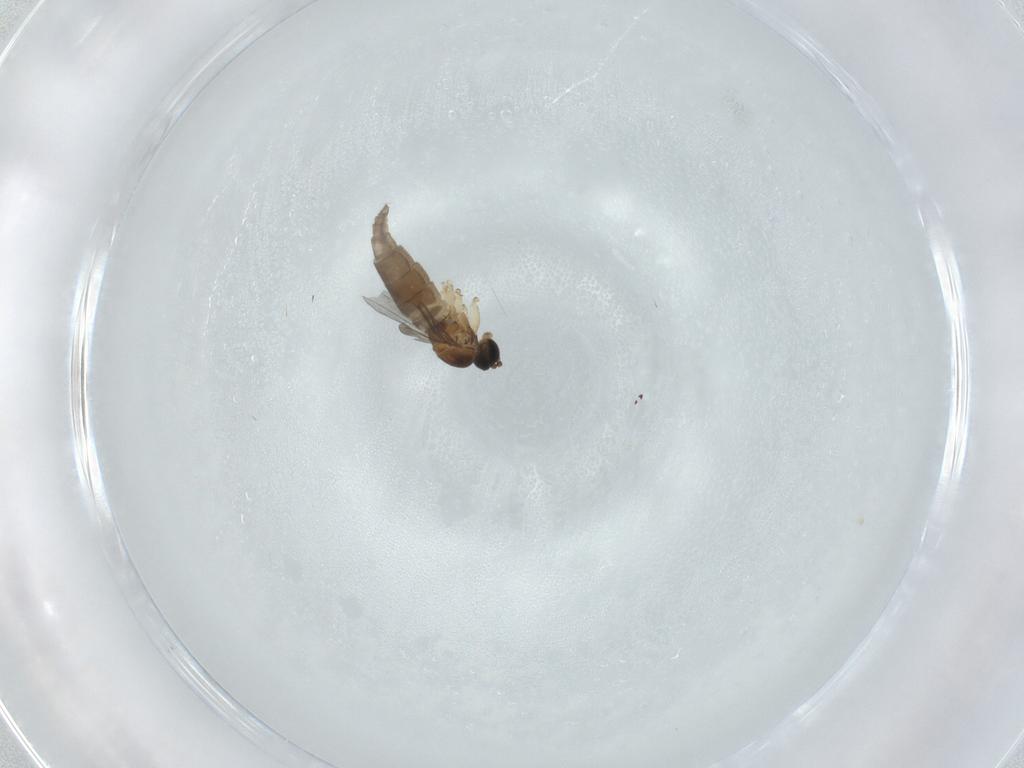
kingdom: Animalia
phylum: Arthropoda
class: Insecta
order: Diptera
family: Sciaridae
